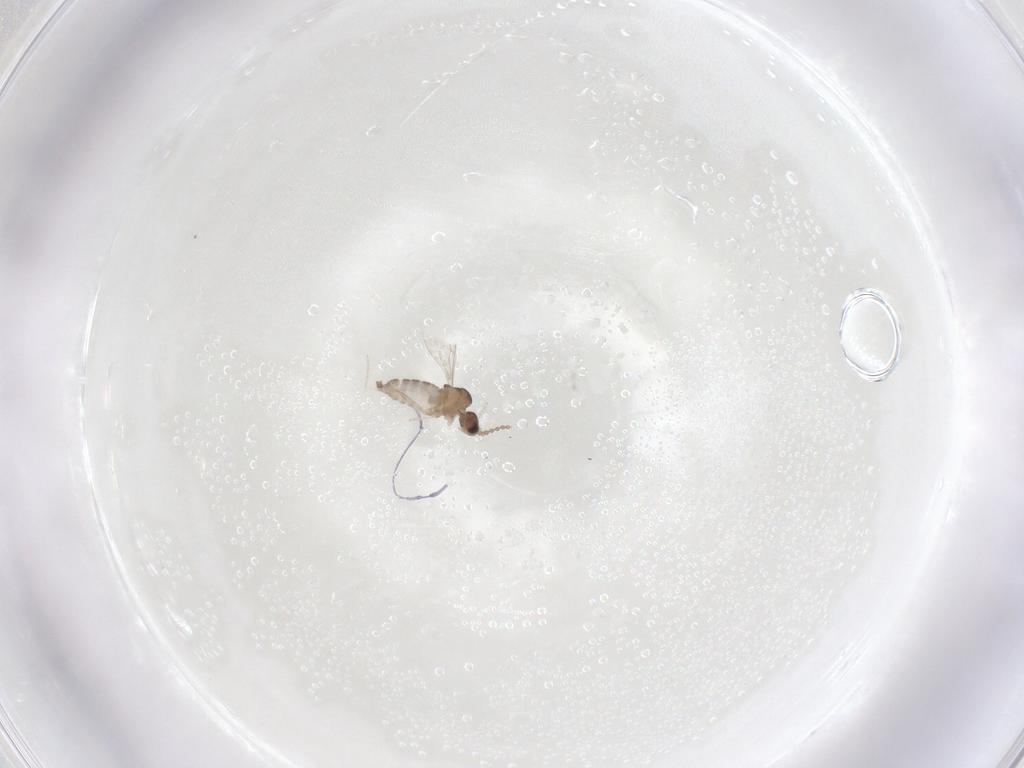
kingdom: Animalia
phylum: Arthropoda
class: Insecta
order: Diptera
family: Cecidomyiidae
